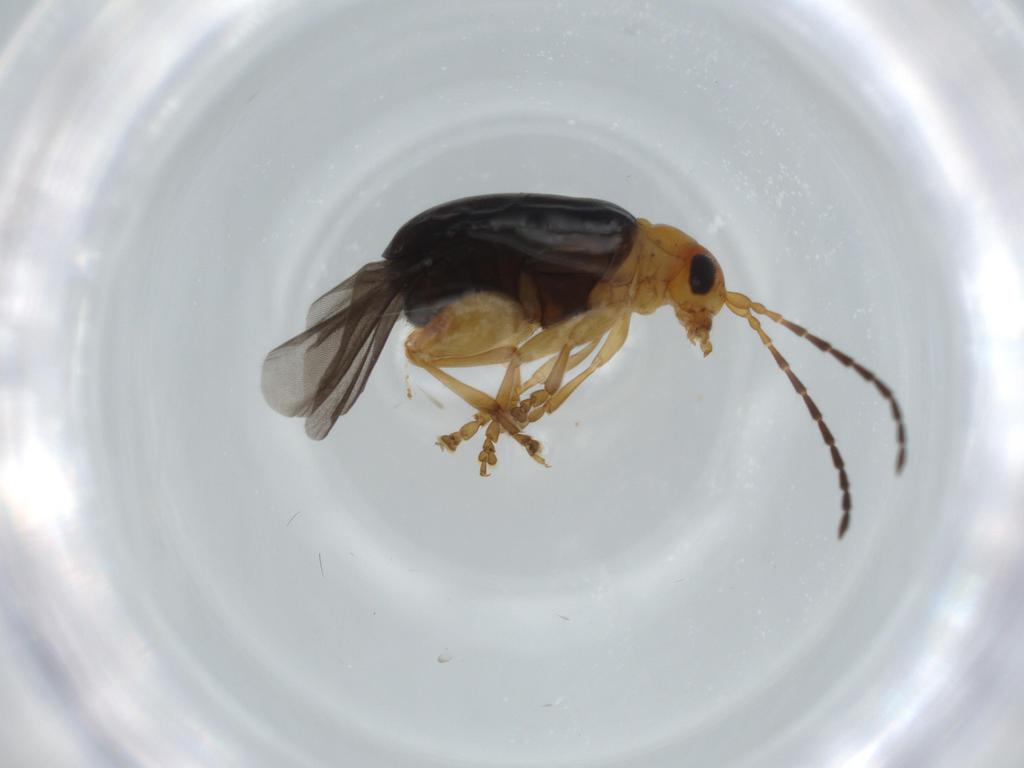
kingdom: Animalia
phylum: Arthropoda
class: Insecta
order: Coleoptera
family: Chrysomelidae
